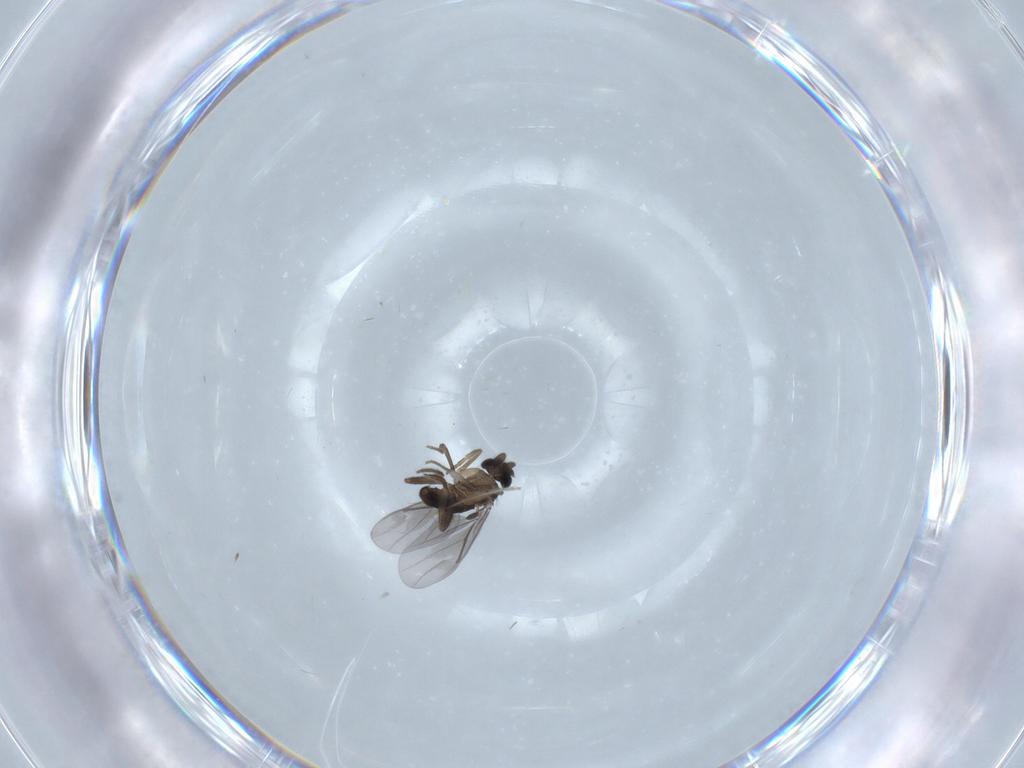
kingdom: Animalia
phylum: Arthropoda
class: Insecta
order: Diptera
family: Chironomidae
